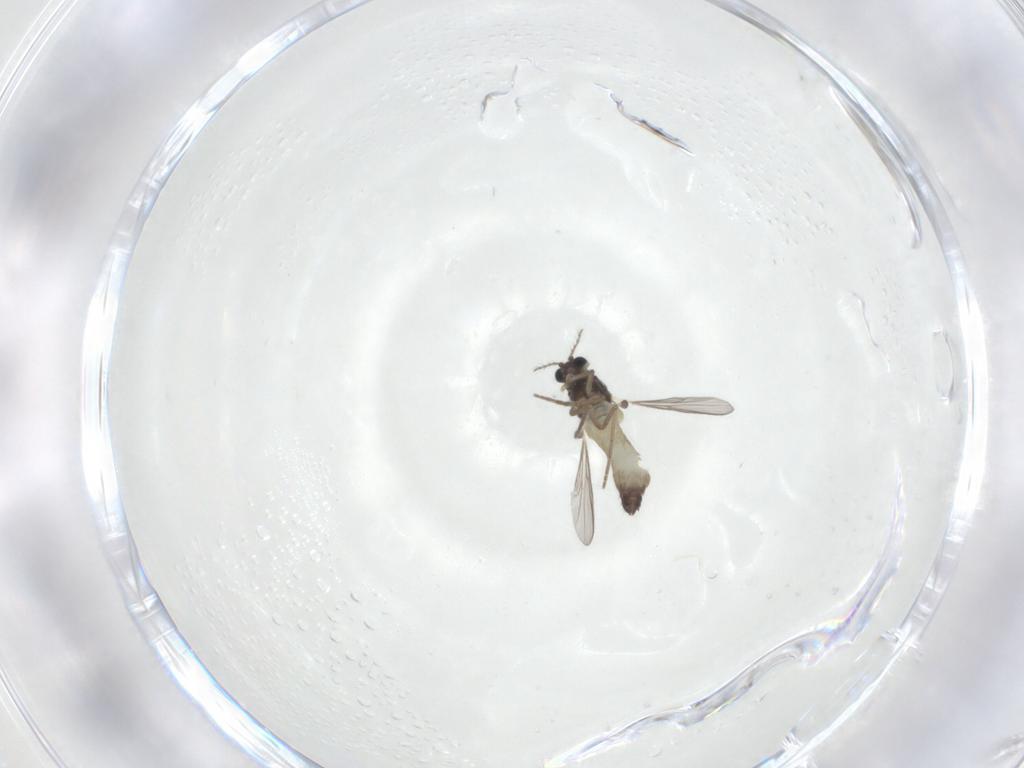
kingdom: Animalia
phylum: Arthropoda
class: Insecta
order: Diptera
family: Chironomidae
